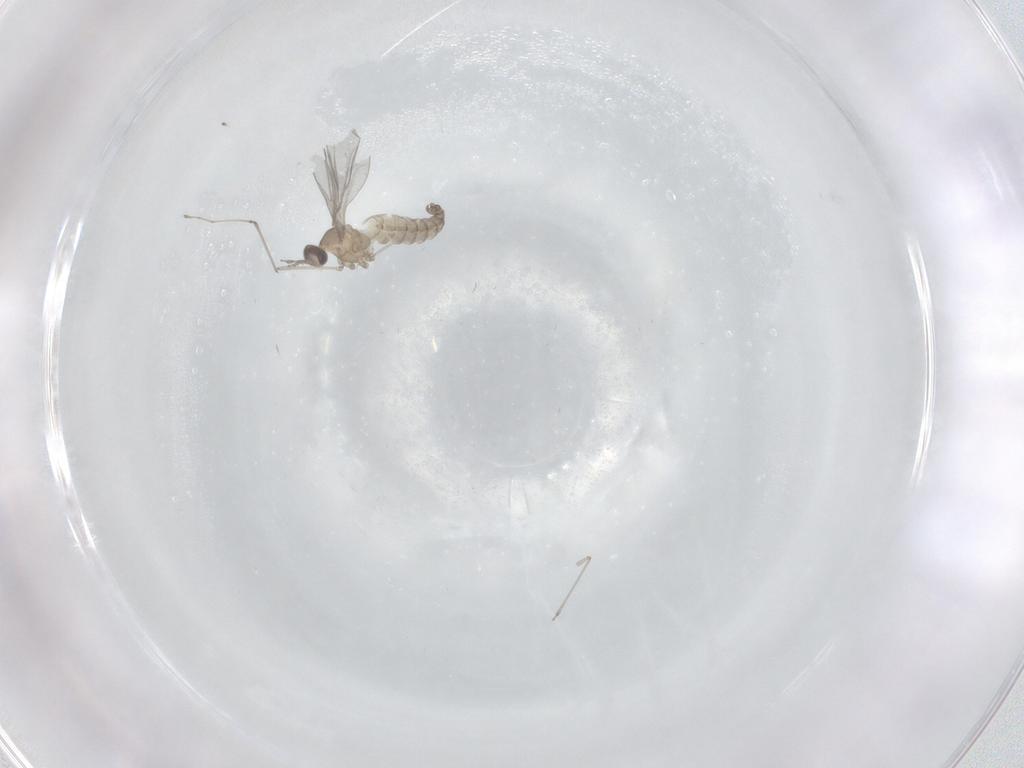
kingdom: Animalia
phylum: Arthropoda
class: Insecta
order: Diptera
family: Cecidomyiidae
